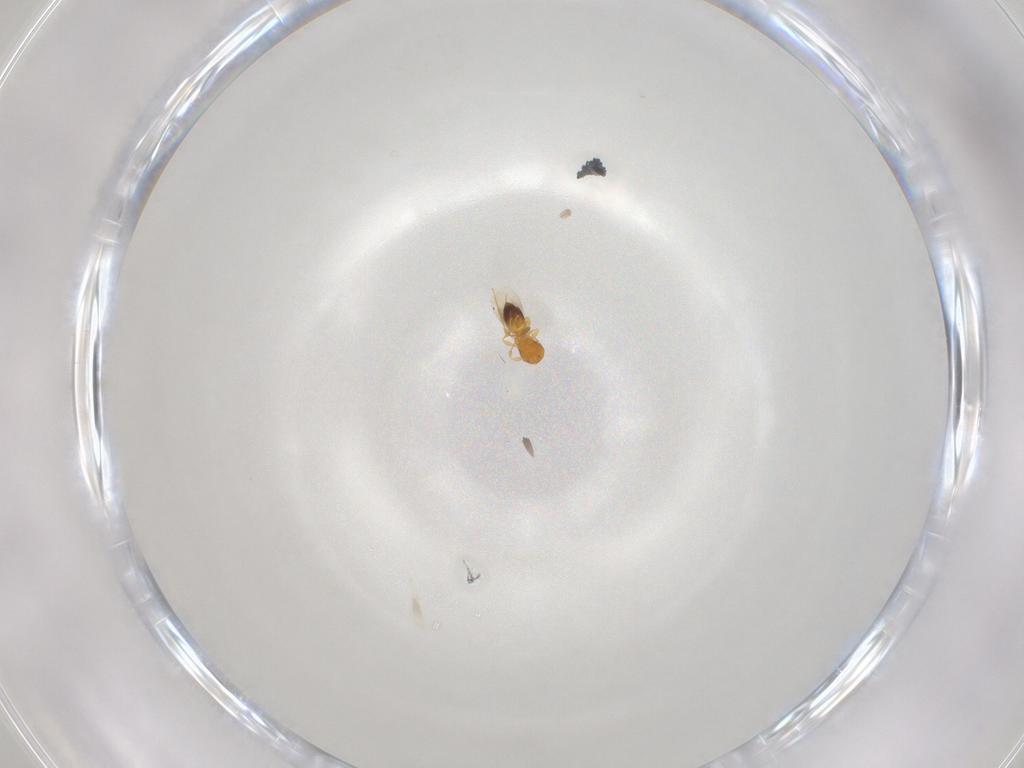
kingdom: Animalia
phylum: Arthropoda
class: Insecta
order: Hymenoptera
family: Platygastridae
